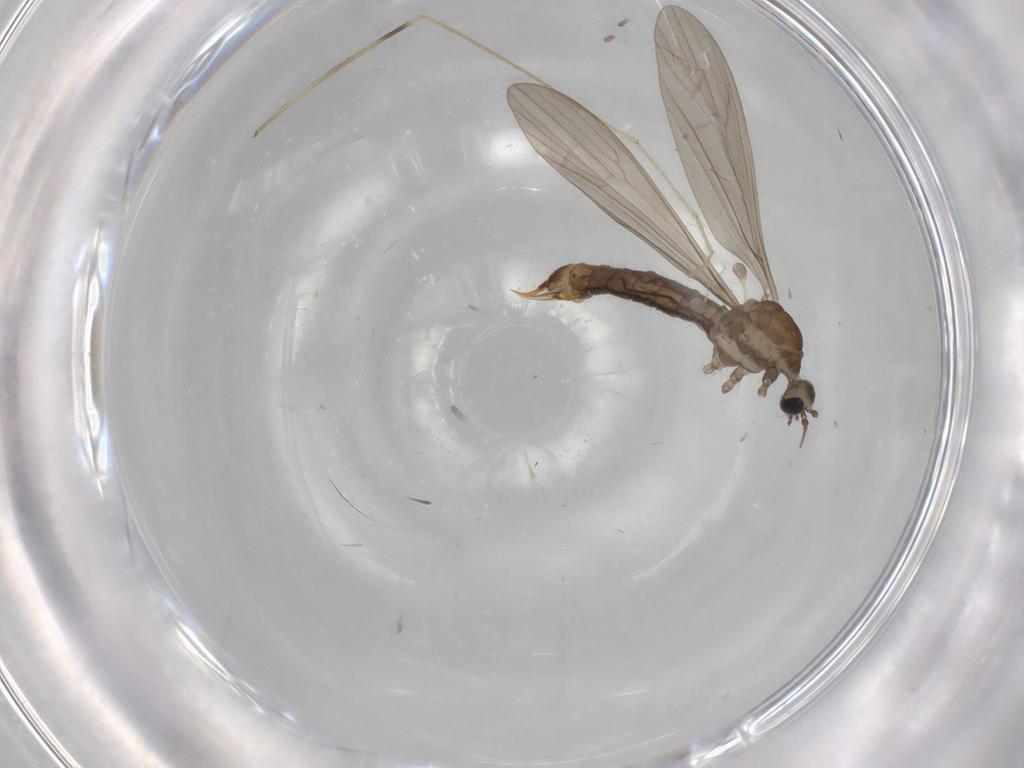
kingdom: Animalia
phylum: Arthropoda
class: Insecta
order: Diptera
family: Limoniidae
